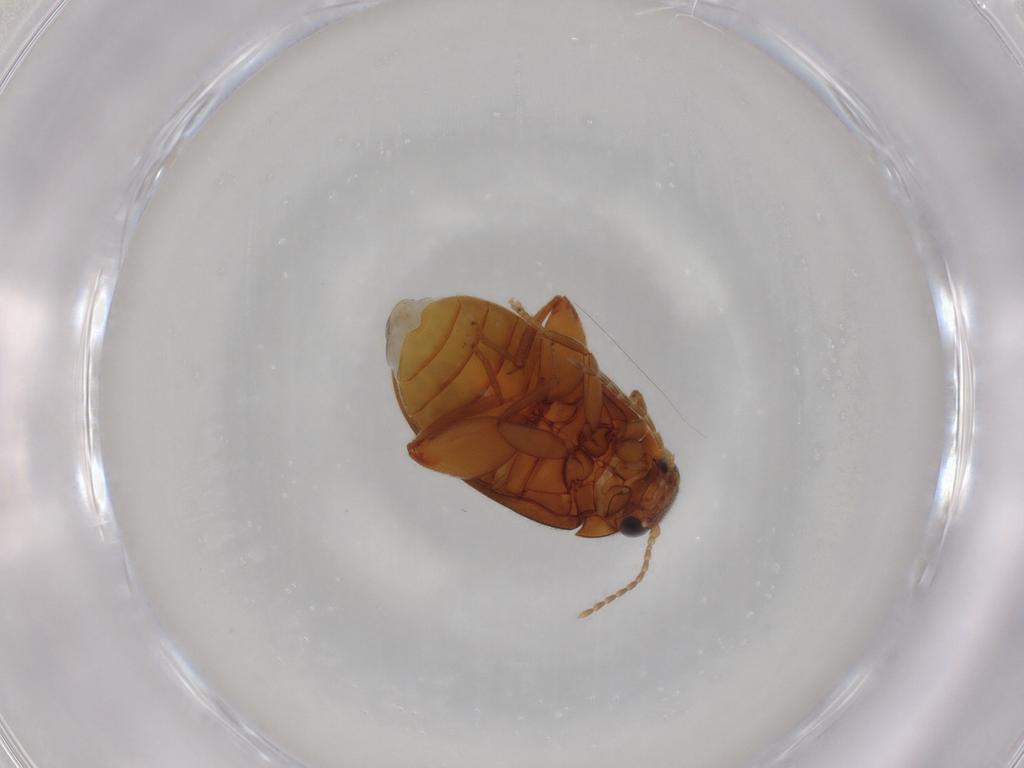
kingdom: Animalia
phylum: Arthropoda
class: Insecta
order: Coleoptera
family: Scirtidae
